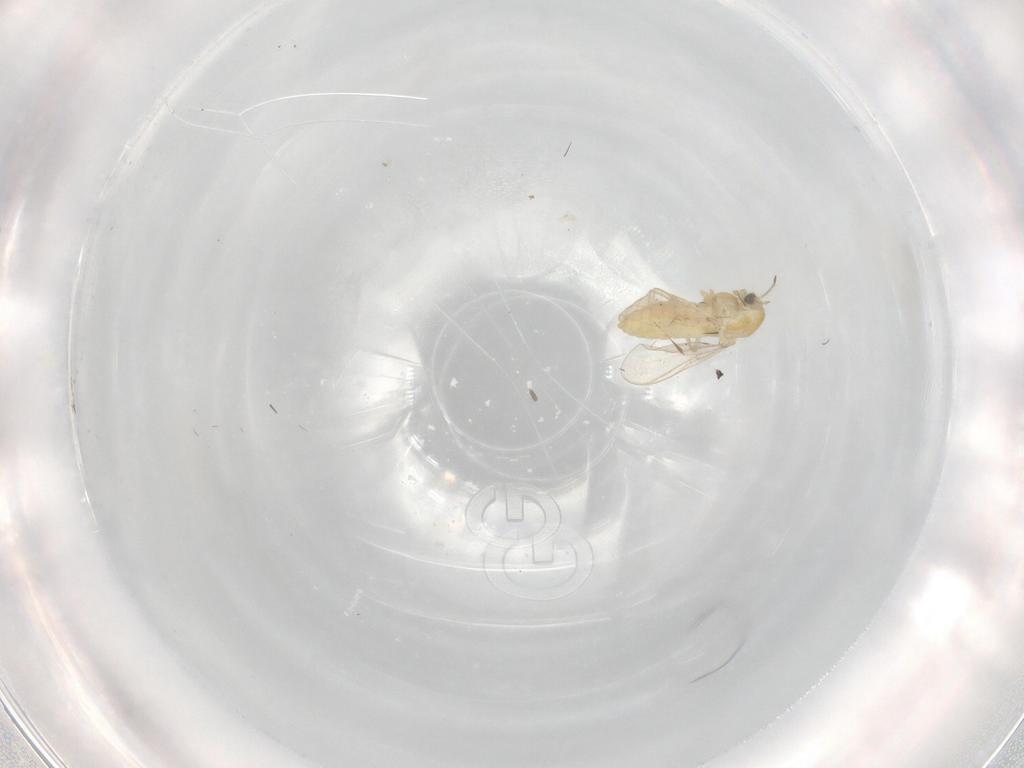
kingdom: Animalia
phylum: Arthropoda
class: Insecta
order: Diptera
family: Chironomidae
